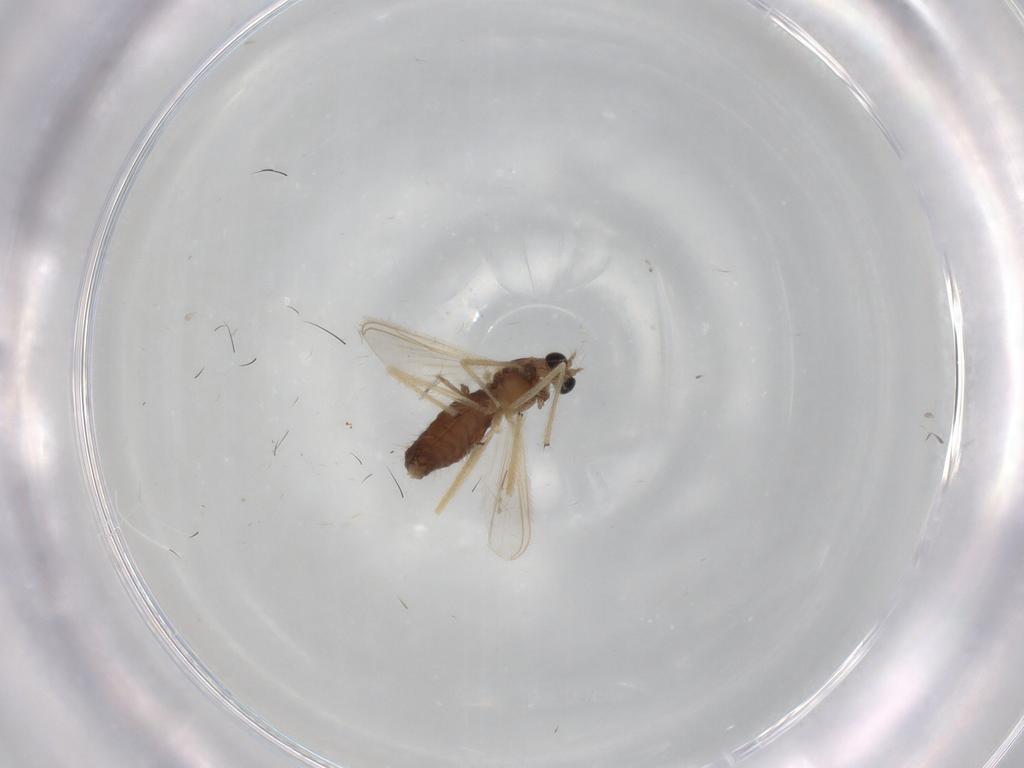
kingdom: Animalia
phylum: Arthropoda
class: Insecta
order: Diptera
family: Chironomidae
